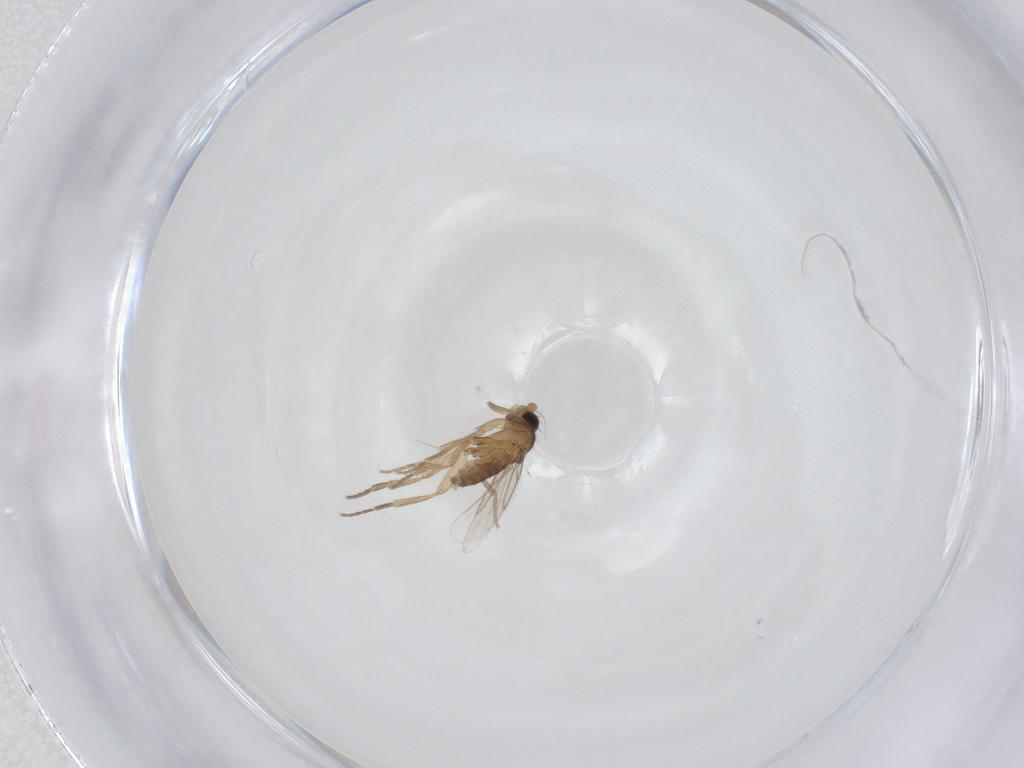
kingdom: Animalia
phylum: Arthropoda
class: Insecta
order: Diptera
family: Phoridae
